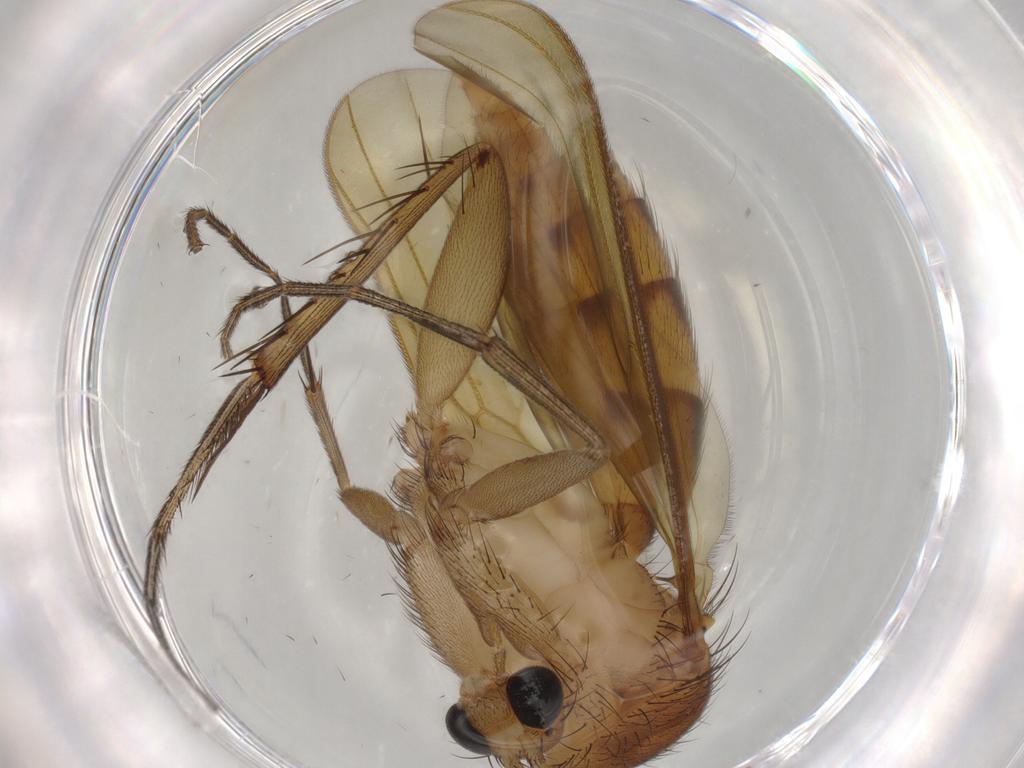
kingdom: Animalia
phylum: Arthropoda
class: Insecta
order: Diptera
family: Mycetophilidae
